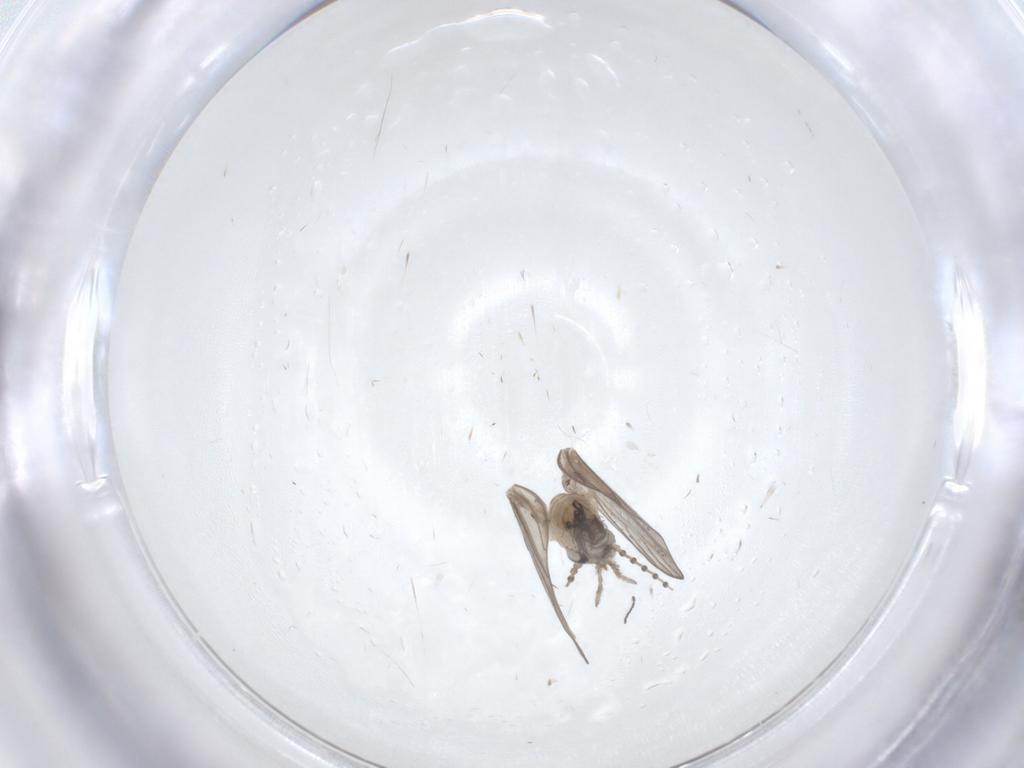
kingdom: Animalia
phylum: Arthropoda
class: Insecta
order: Diptera
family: Psychodidae
